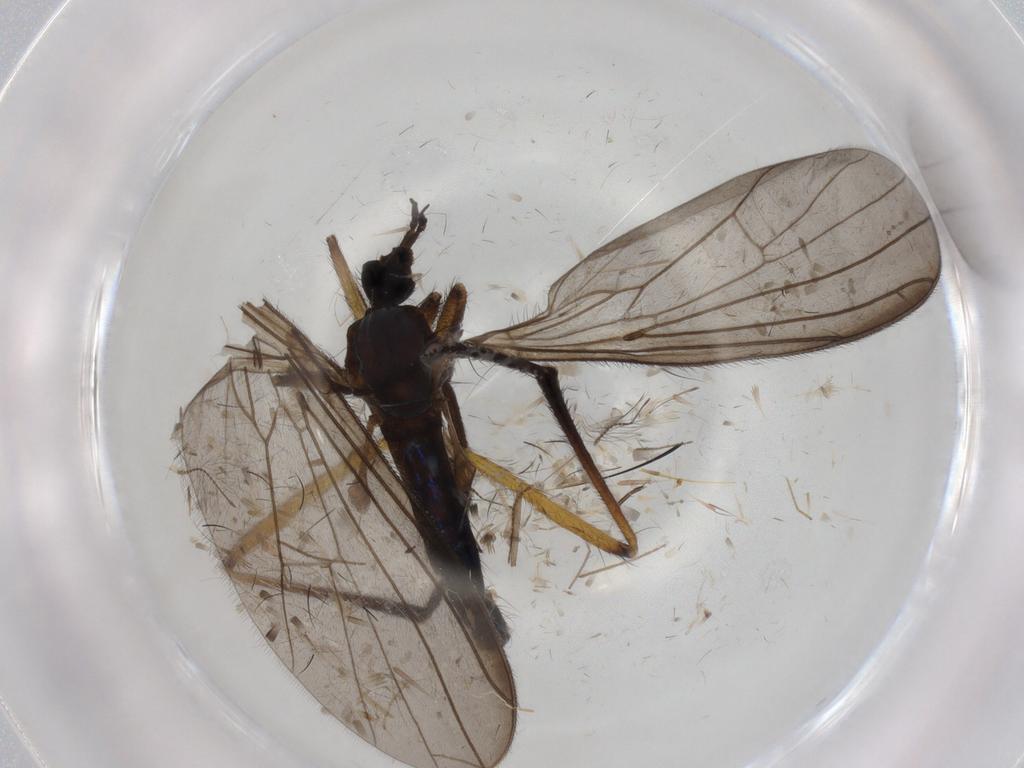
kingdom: Animalia
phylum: Arthropoda
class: Insecta
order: Diptera
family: Empididae
